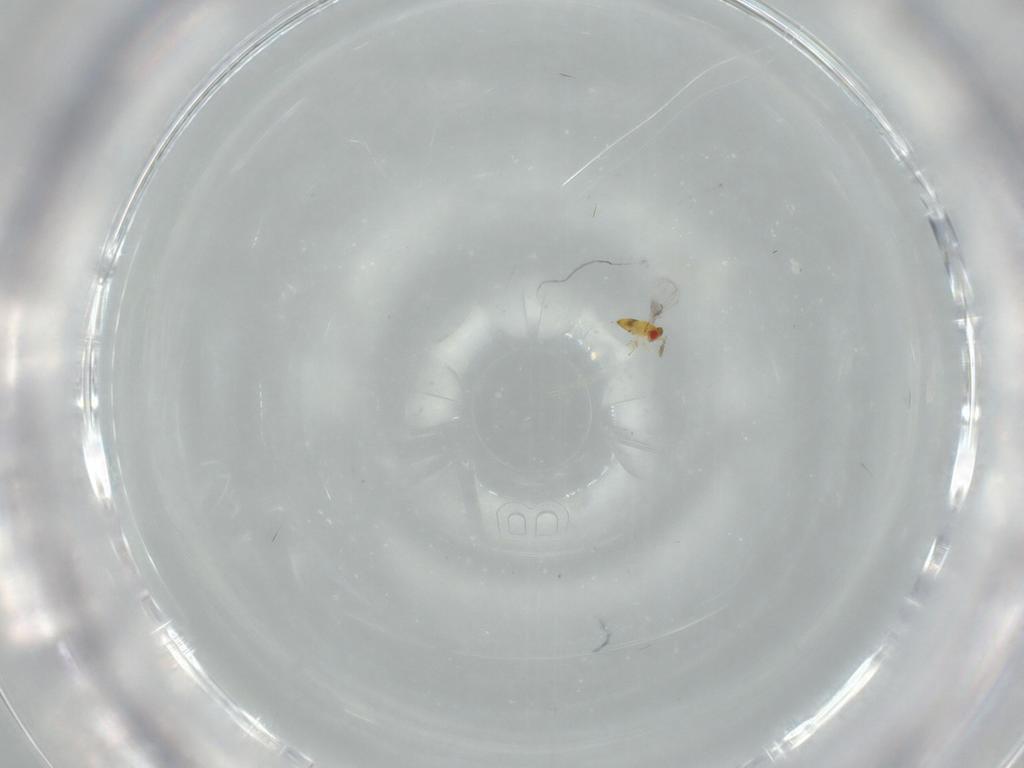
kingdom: Animalia
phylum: Arthropoda
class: Insecta
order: Hymenoptera
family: Trichogrammatidae
